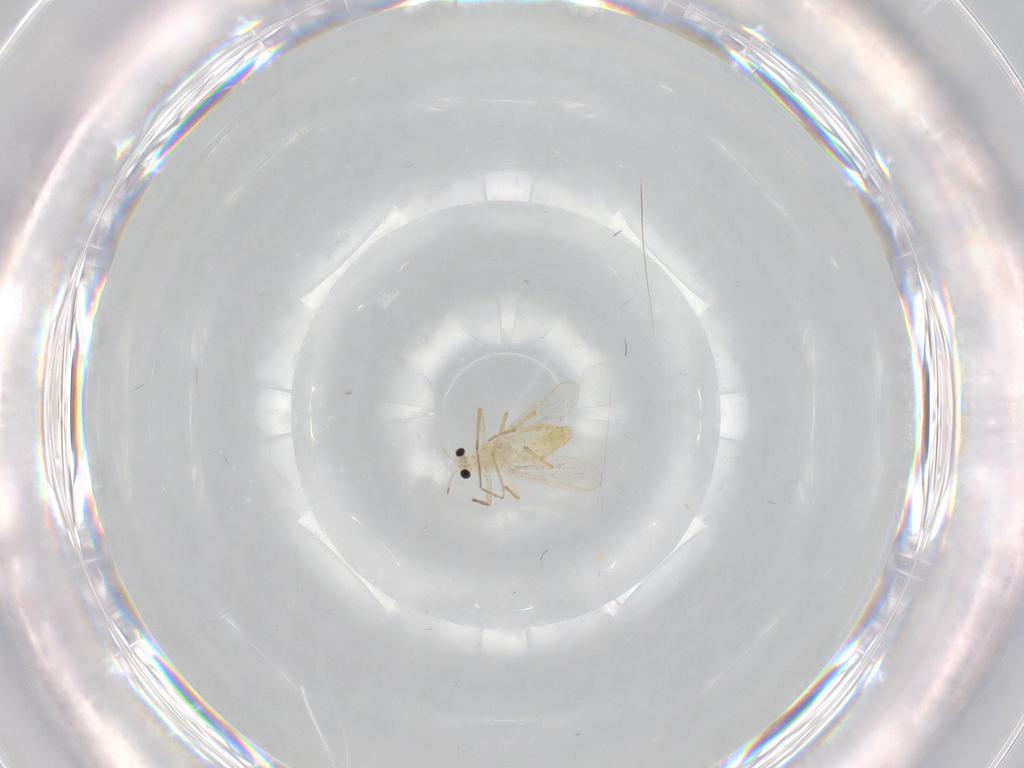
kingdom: Animalia
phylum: Arthropoda
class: Insecta
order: Diptera
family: Chironomidae
